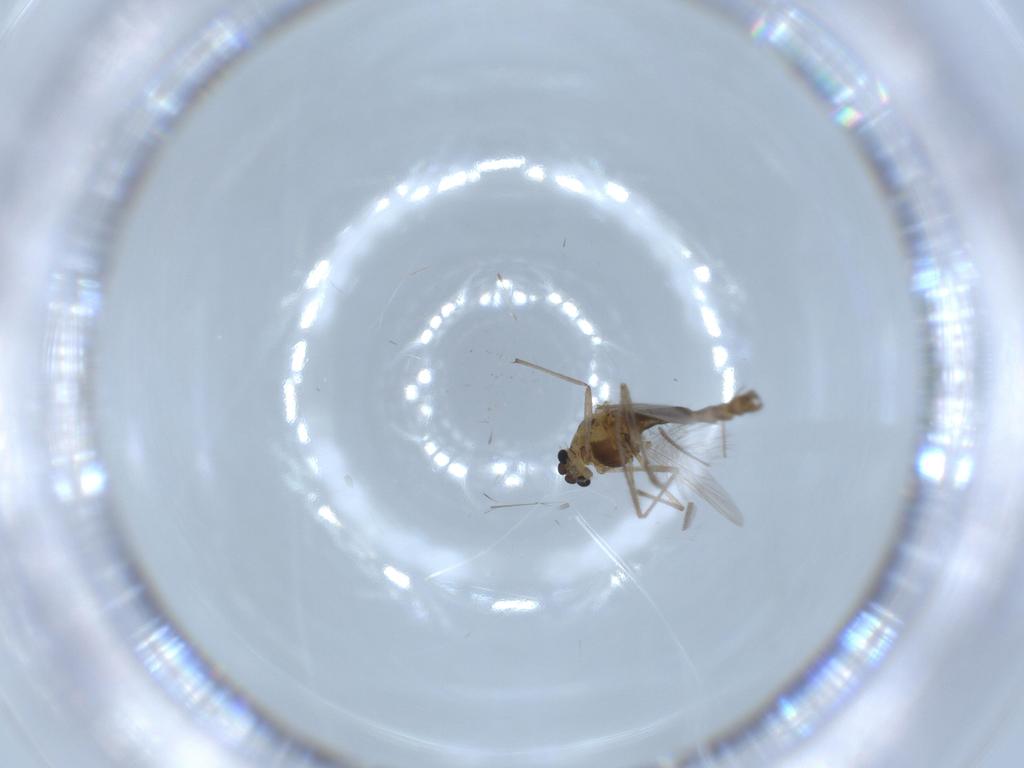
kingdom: Animalia
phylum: Arthropoda
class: Insecta
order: Diptera
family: Chironomidae
